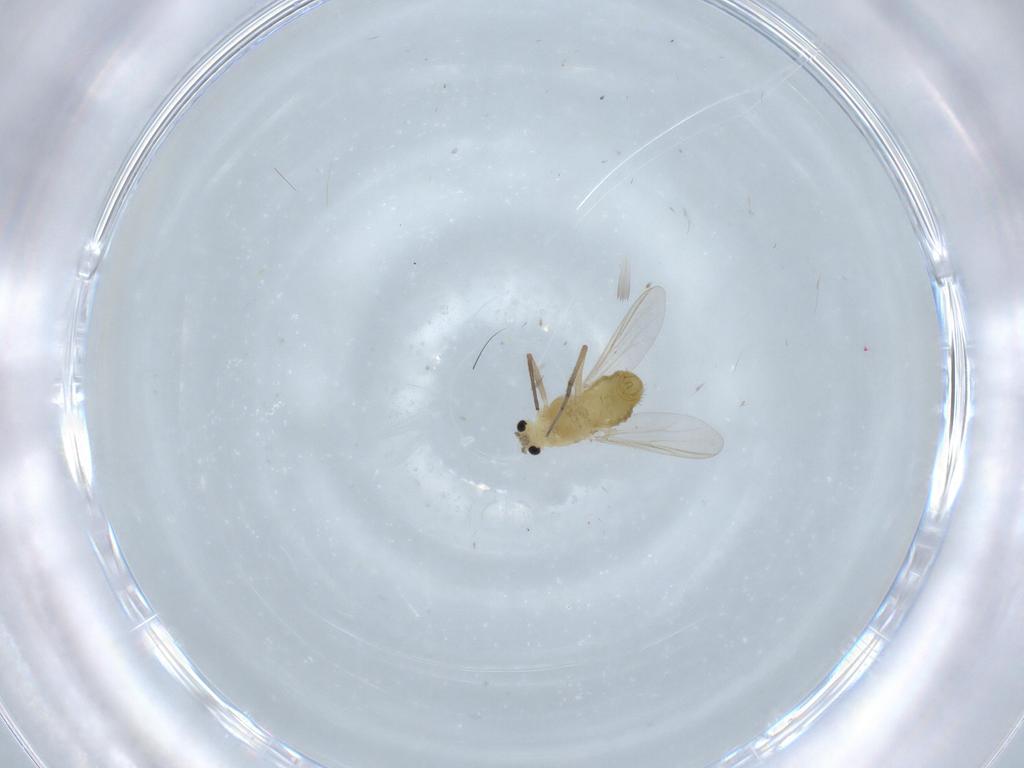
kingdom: Animalia
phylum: Arthropoda
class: Insecta
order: Diptera
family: Chironomidae
